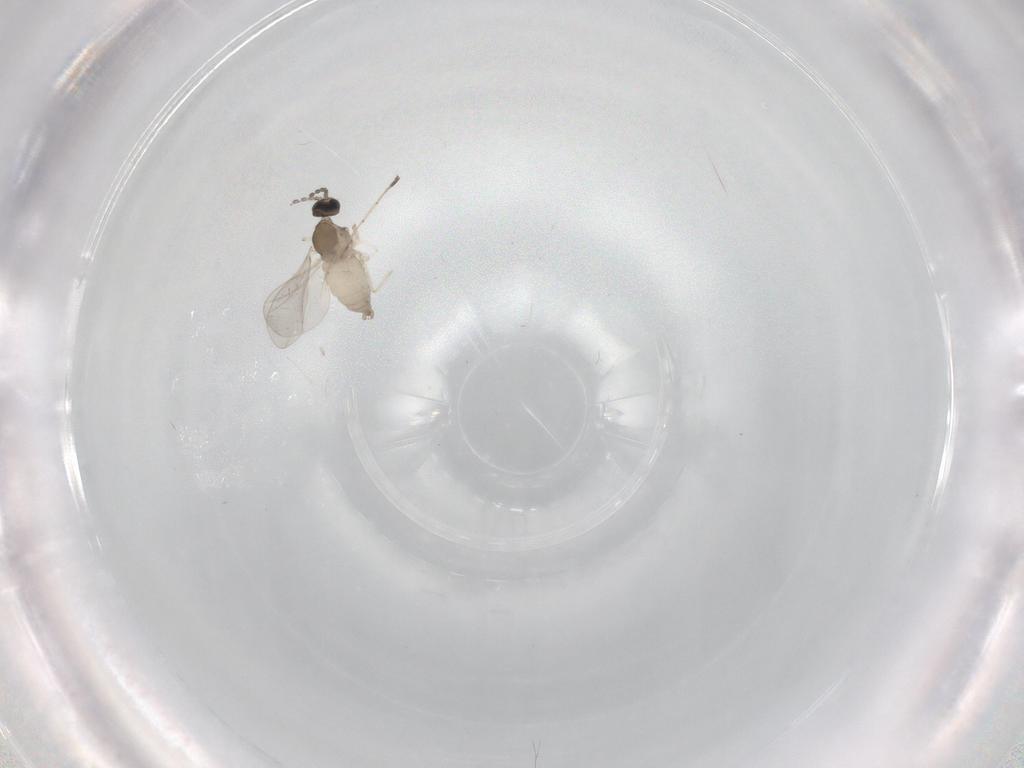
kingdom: Animalia
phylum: Arthropoda
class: Insecta
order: Diptera
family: Cecidomyiidae
